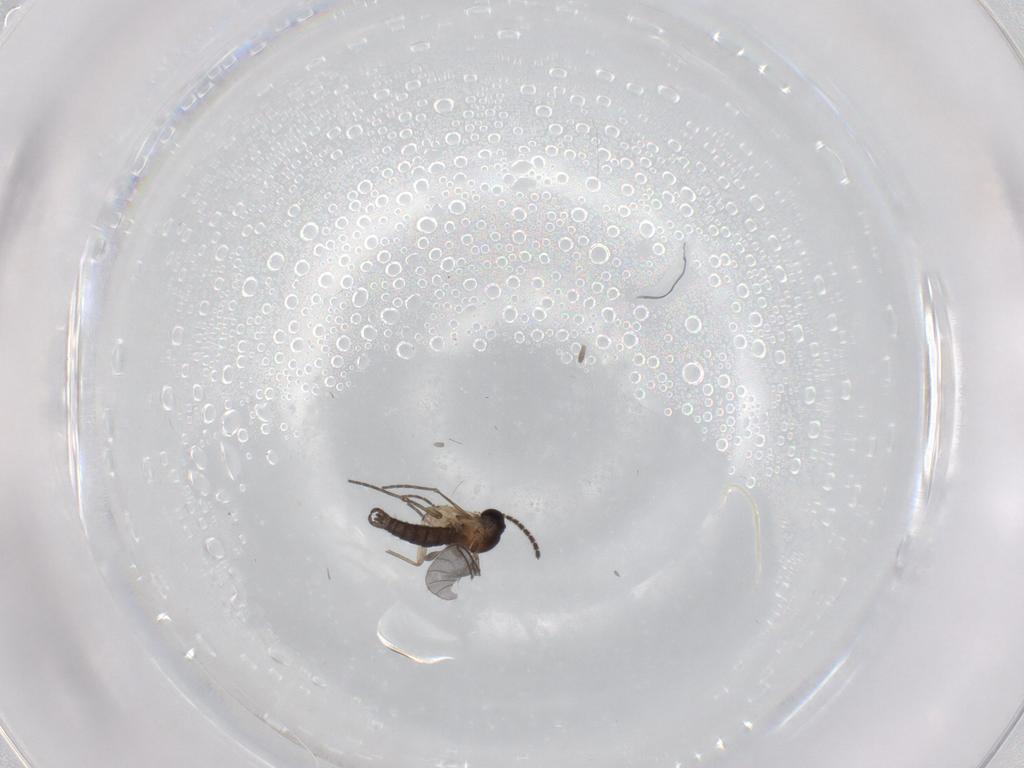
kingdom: Animalia
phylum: Arthropoda
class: Insecta
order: Diptera
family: Sciaridae
